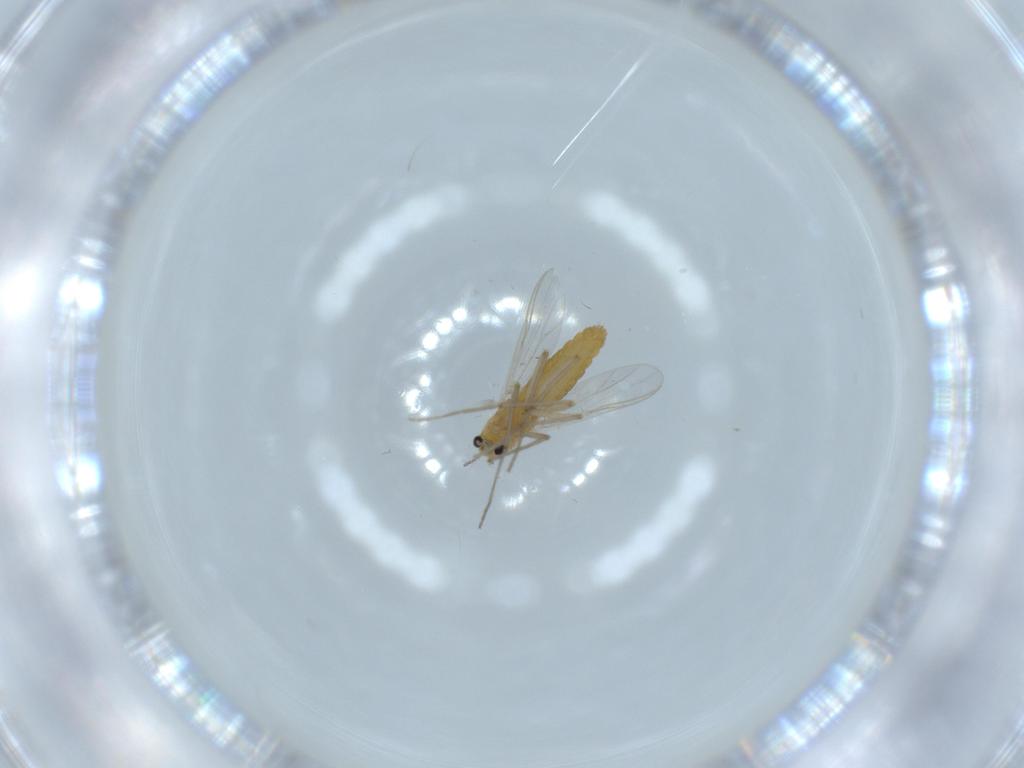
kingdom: Animalia
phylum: Arthropoda
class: Insecta
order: Diptera
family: Chironomidae
